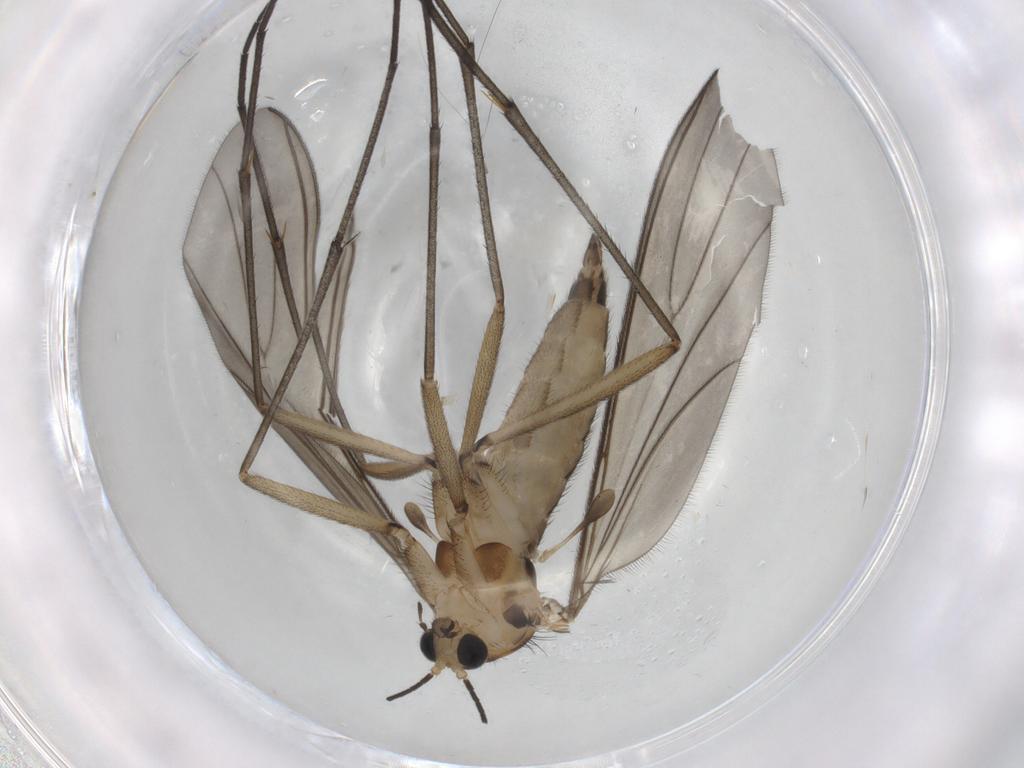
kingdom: Animalia
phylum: Arthropoda
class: Insecta
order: Diptera
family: Sciaridae
